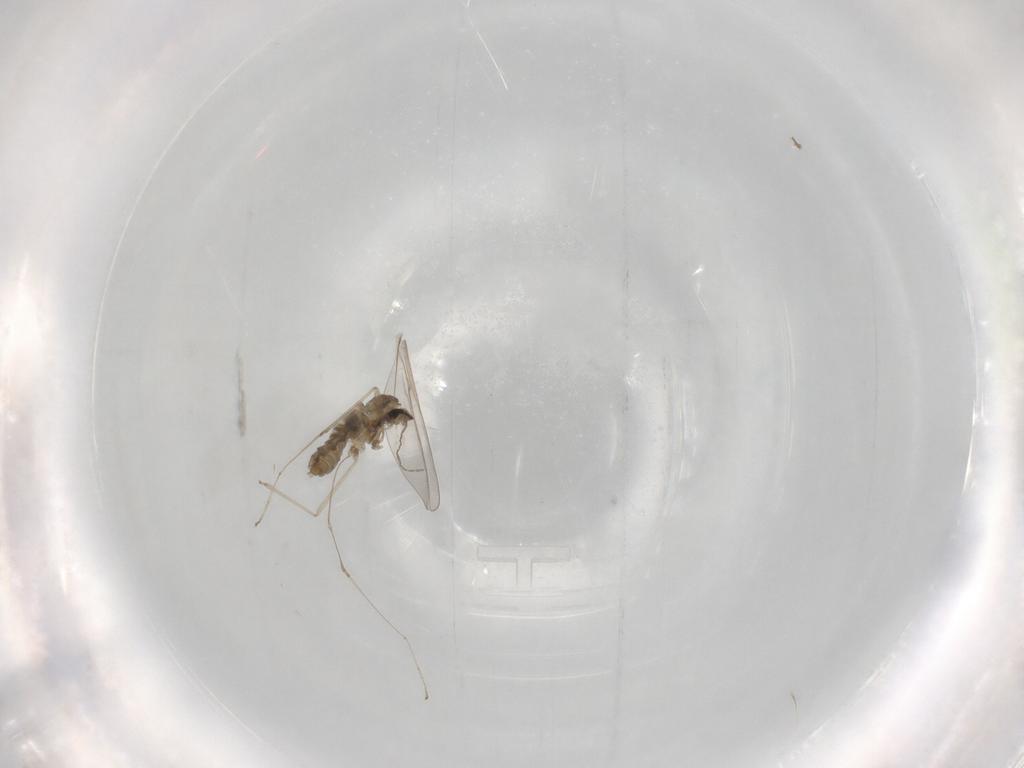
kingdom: Animalia
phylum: Arthropoda
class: Insecta
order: Diptera
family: Cecidomyiidae
